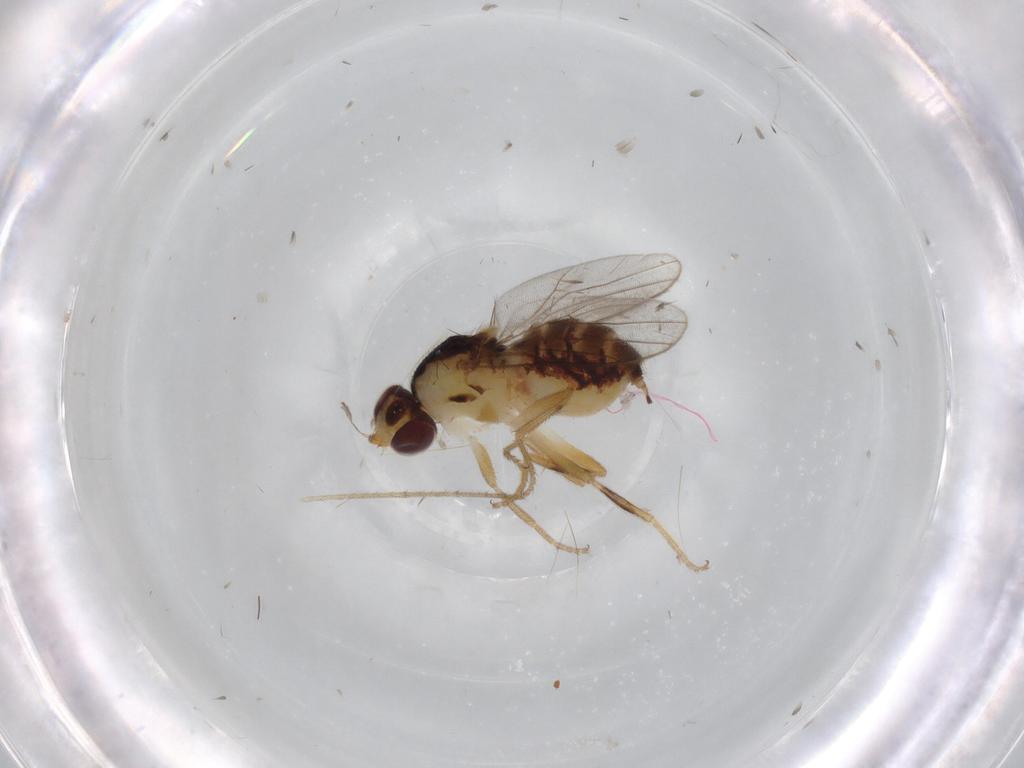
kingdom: Animalia
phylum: Arthropoda
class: Insecta
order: Diptera
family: Chloropidae
